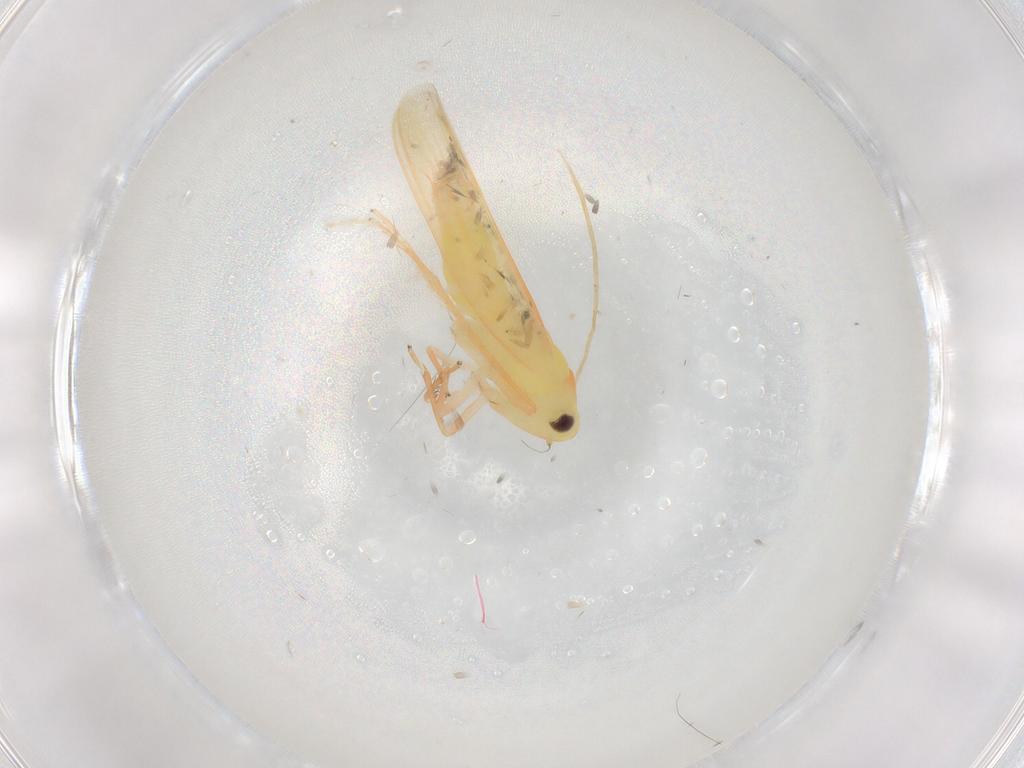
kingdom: Animalia
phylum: Arthropoda
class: Insecta
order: Hemiptera
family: Cicadellidae
